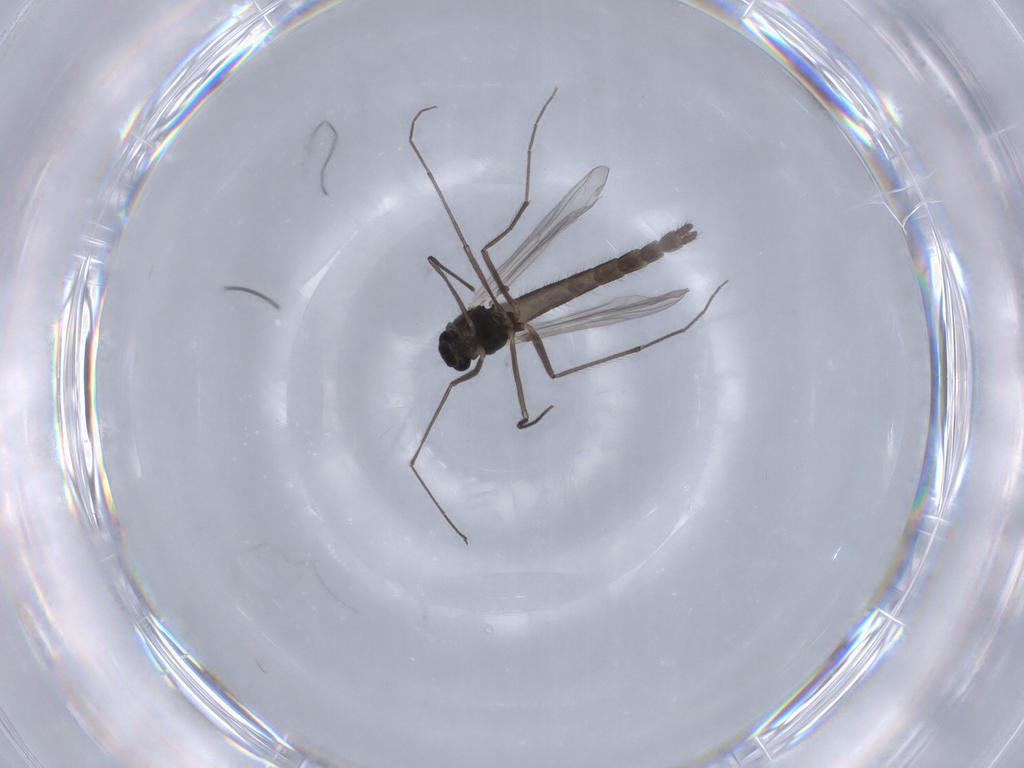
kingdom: Animalia
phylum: Arthropoda
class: Insecta
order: Diptera
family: Chironomidae
